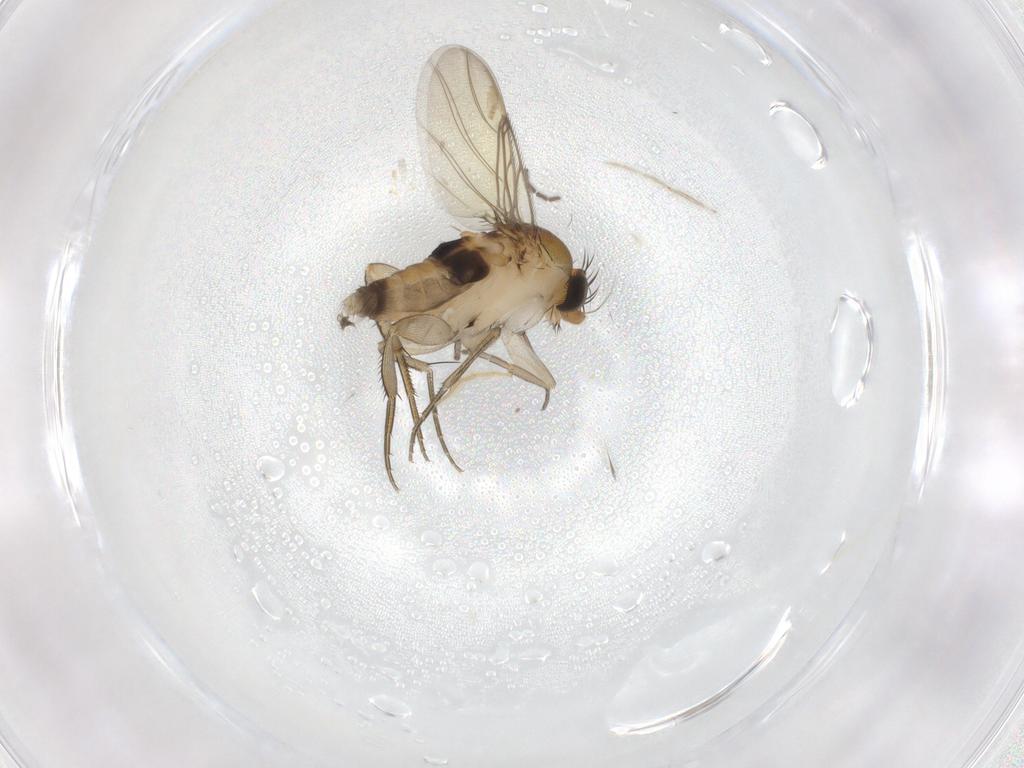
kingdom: Animalia
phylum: Arthropoda
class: Insecta
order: Diptera
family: Phoridae
